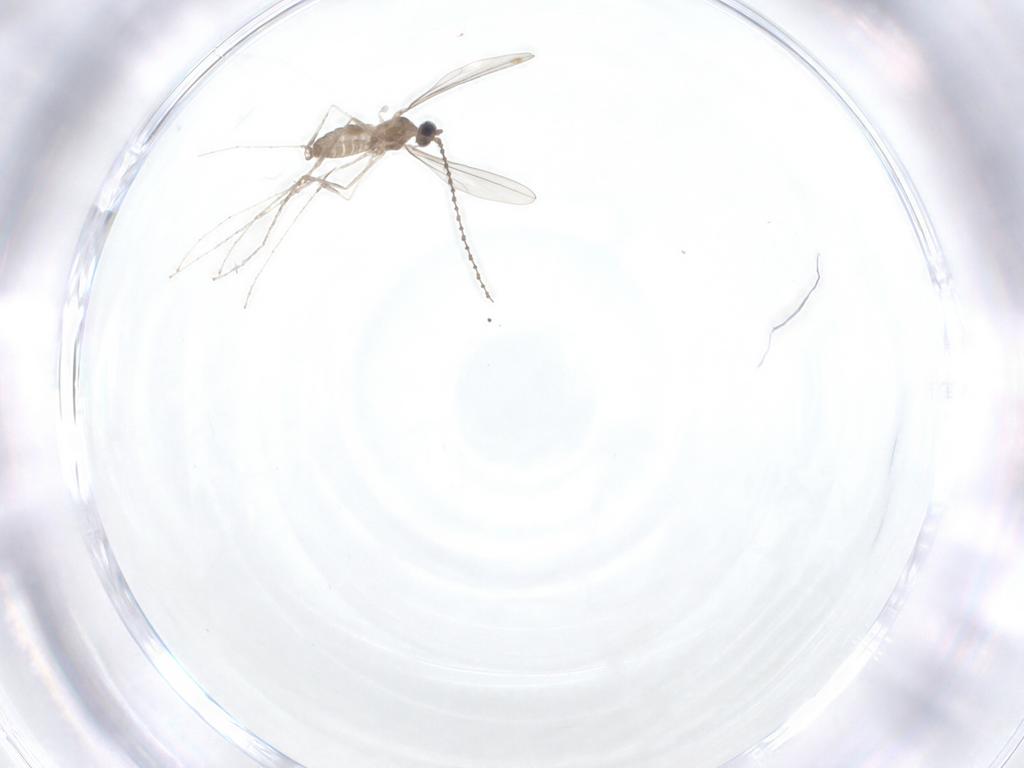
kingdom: Animalia
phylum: Arthropoda
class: Insecta
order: Diptera
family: Cecidomyiidae
